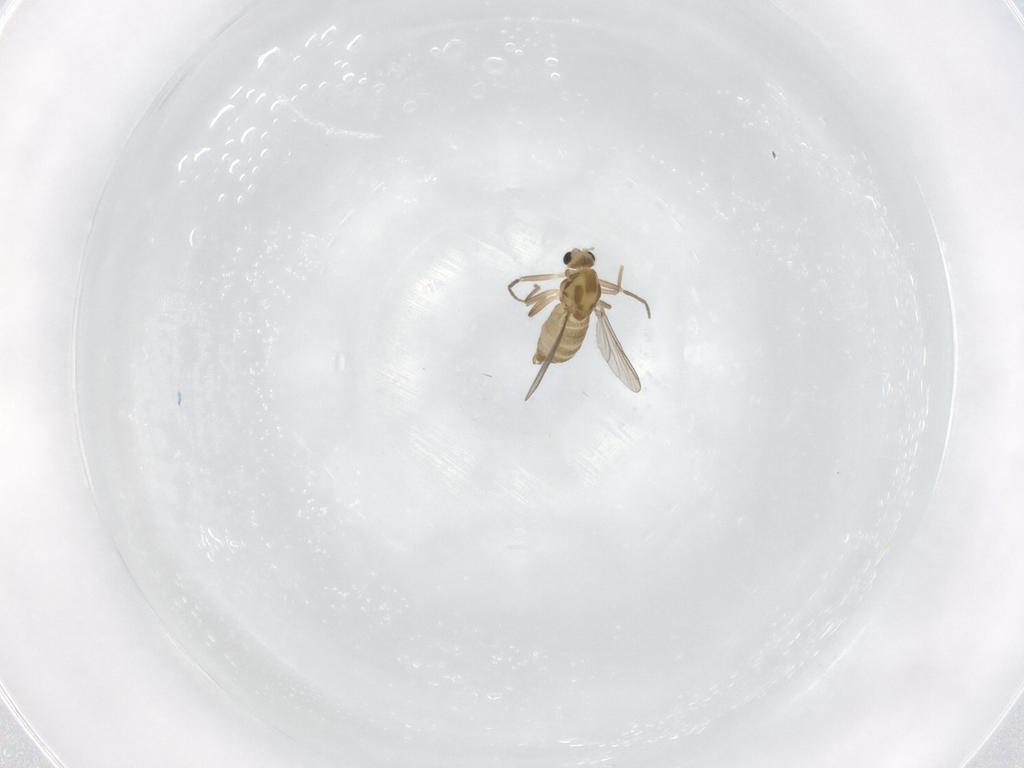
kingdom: Animalia
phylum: Arthropoda
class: Insecta
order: Diptera
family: Chironomidae
